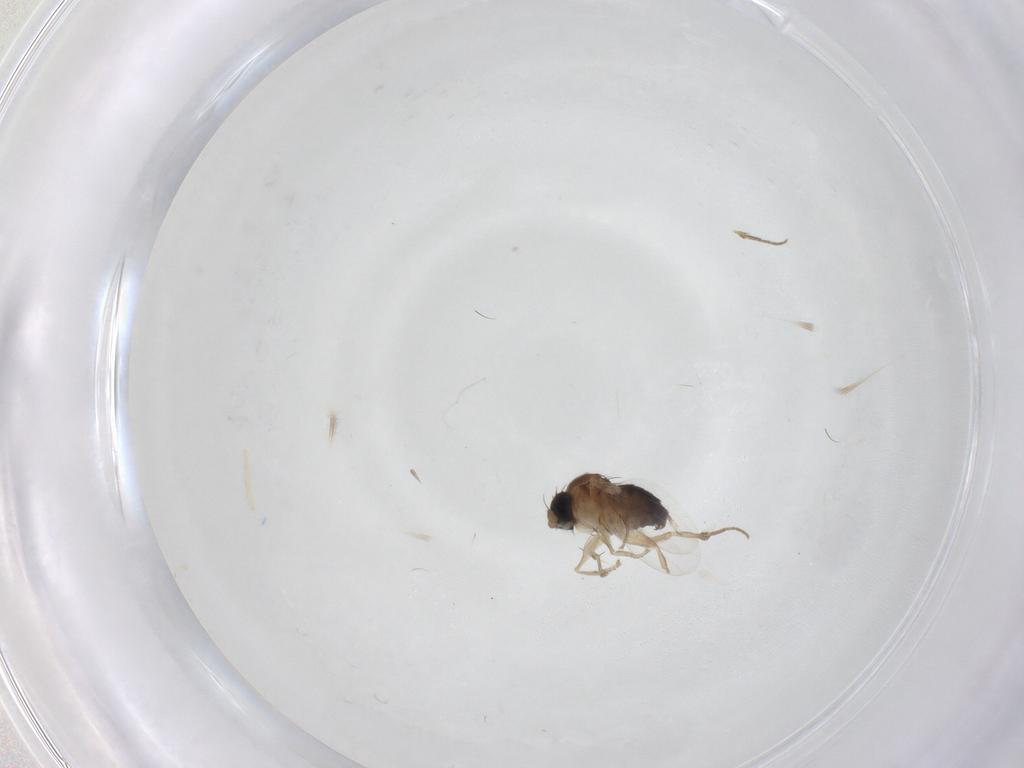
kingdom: Animalia
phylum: Arthropoda
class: Insecta
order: Diptera
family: Phoridae
